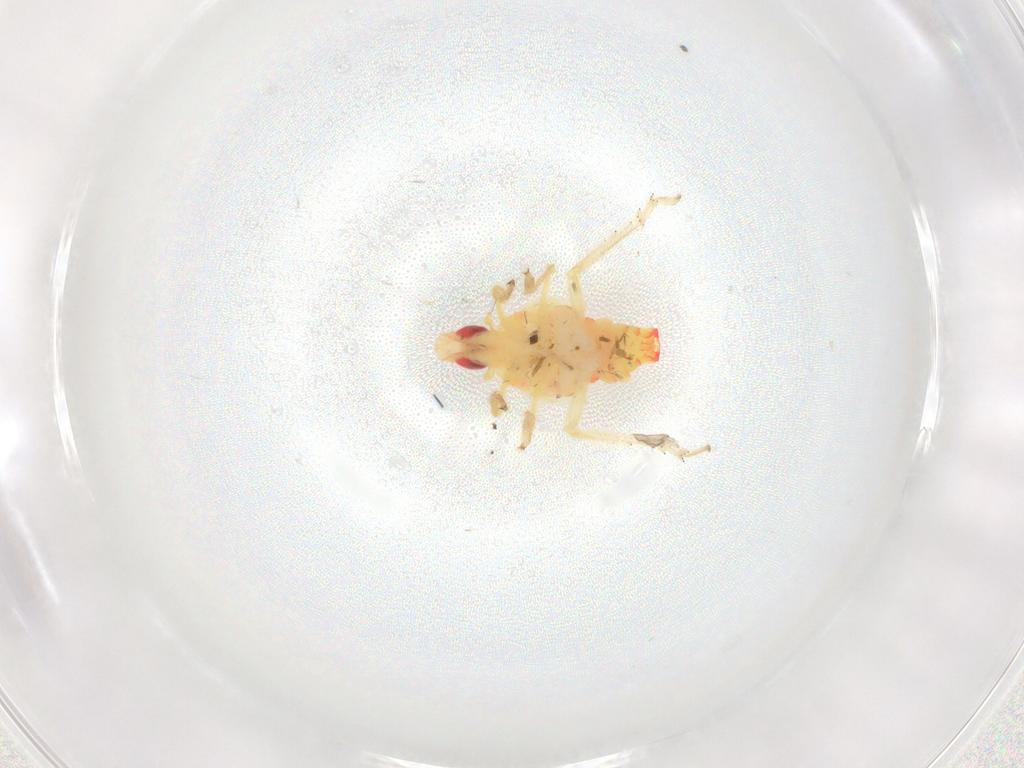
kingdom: Animalia
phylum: Arthropoda
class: Insecta
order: Hemiptera
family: Tropiduchidae
